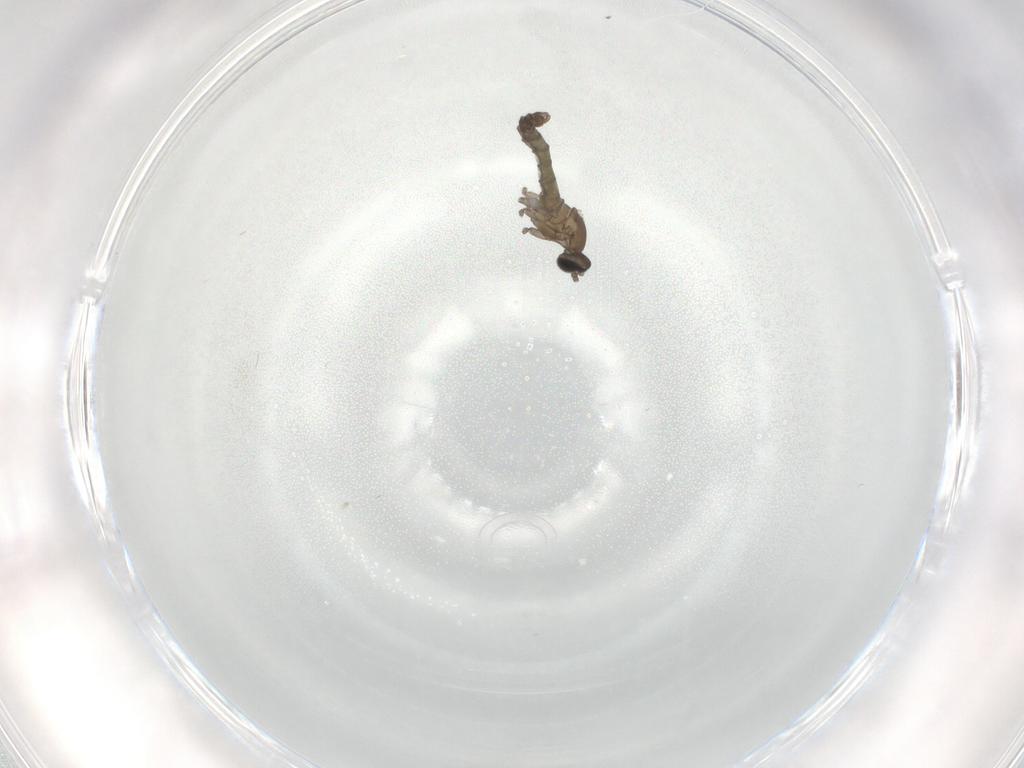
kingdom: Animalia
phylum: Arthropoda
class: Insecta
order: Diptera
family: Cecidomyiidae
